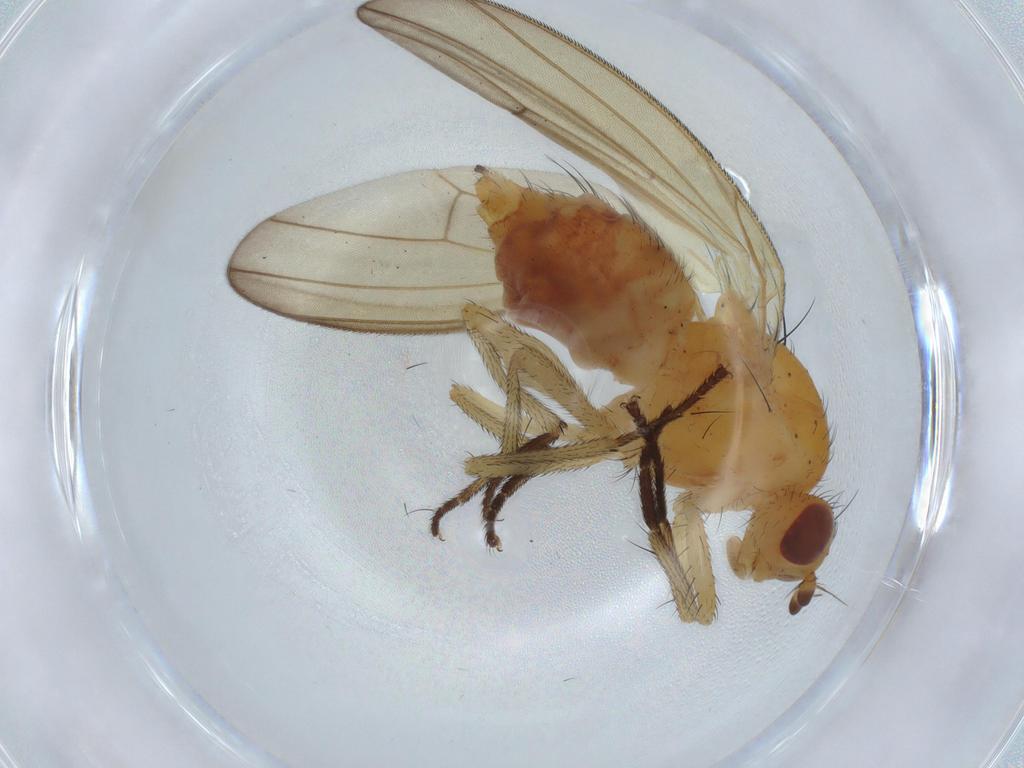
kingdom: Animalia
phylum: Arthropoda
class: Insecta
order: Diptera
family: Lauxaniidae
